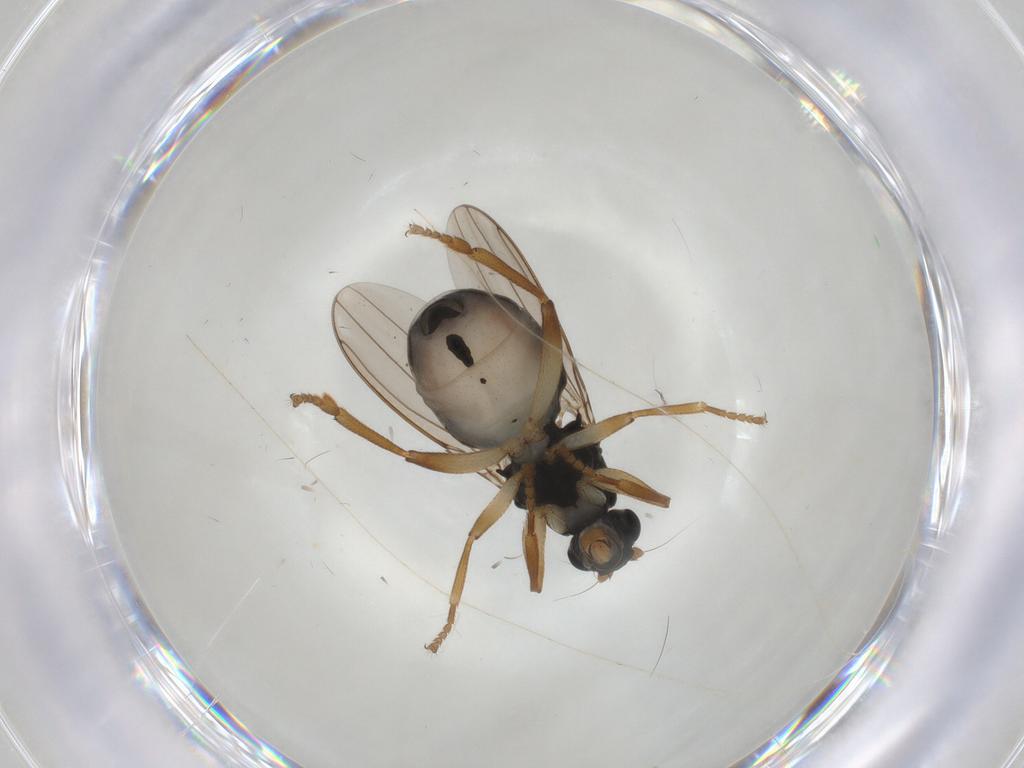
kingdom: Animalia
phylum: Arthropoda
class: Insecta
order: Diptera
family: Sphaeroceridae
